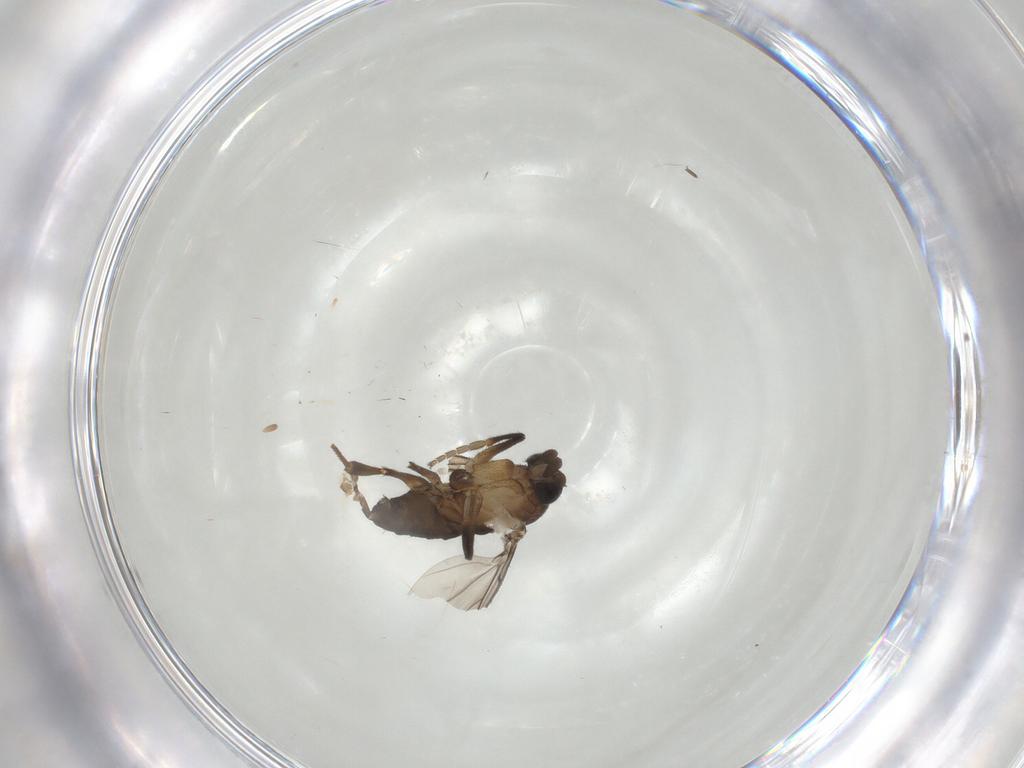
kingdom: Animalia
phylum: Arthropoda
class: Insecta
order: Diptera
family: Phoridae
